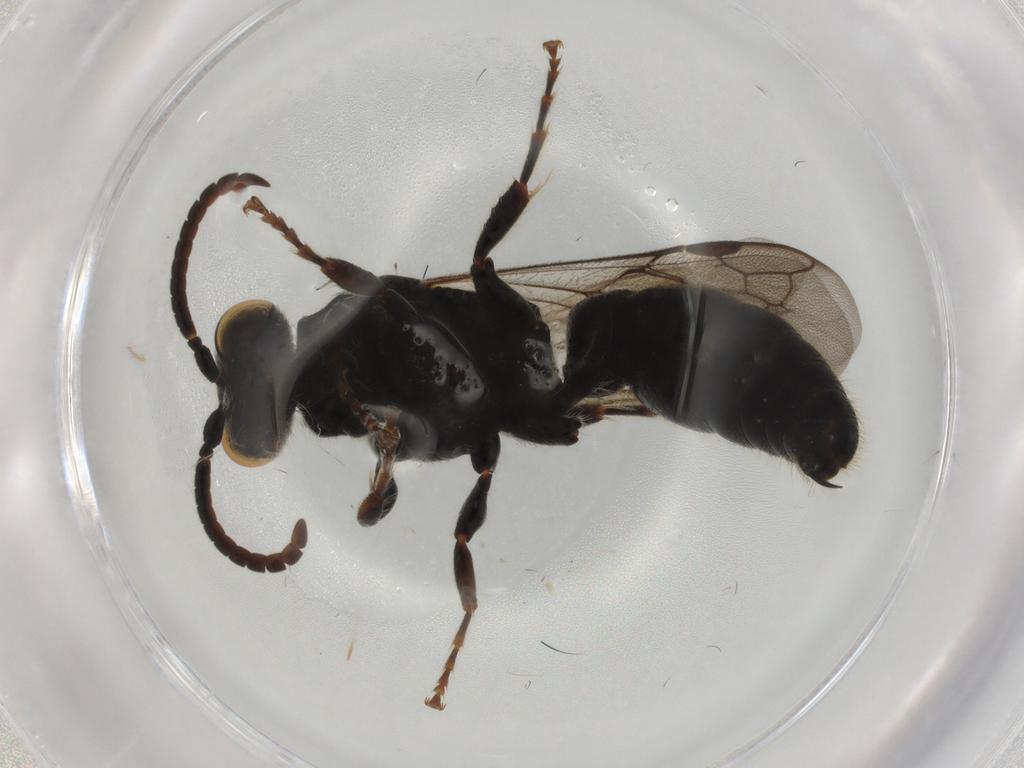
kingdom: Animalia
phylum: Arthropoda
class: Insecta
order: Hymenoptera
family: Tiphiidae
